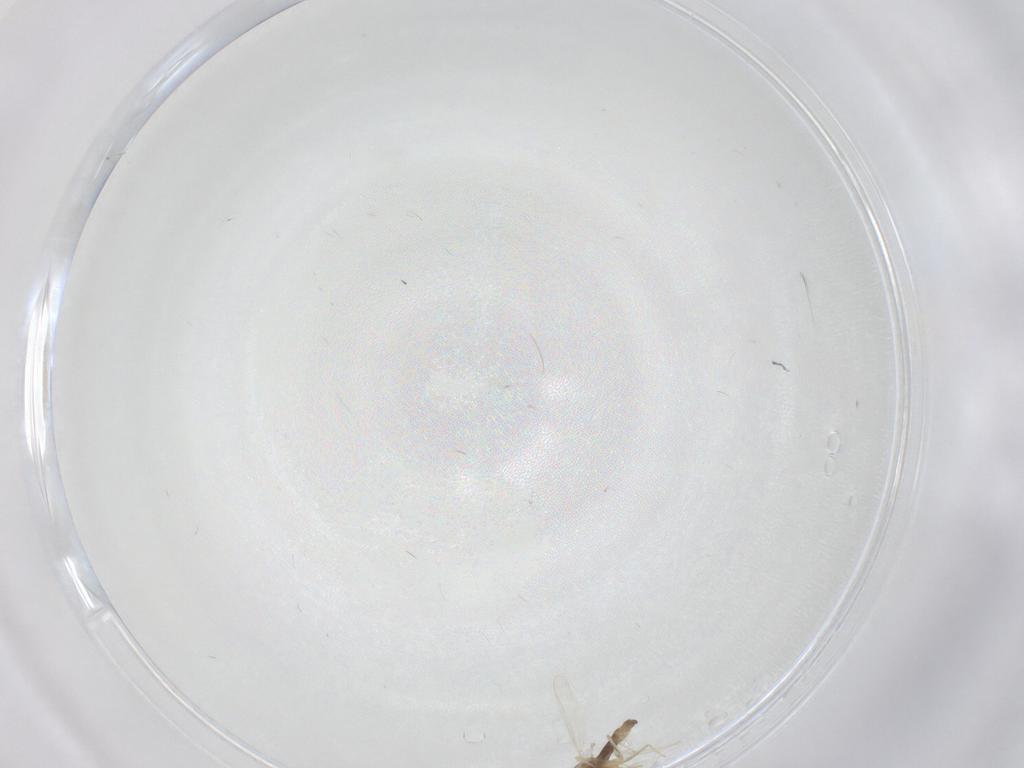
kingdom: Animalia
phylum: Arthropoda
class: Insecta
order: Diptera
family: Chironomidae
